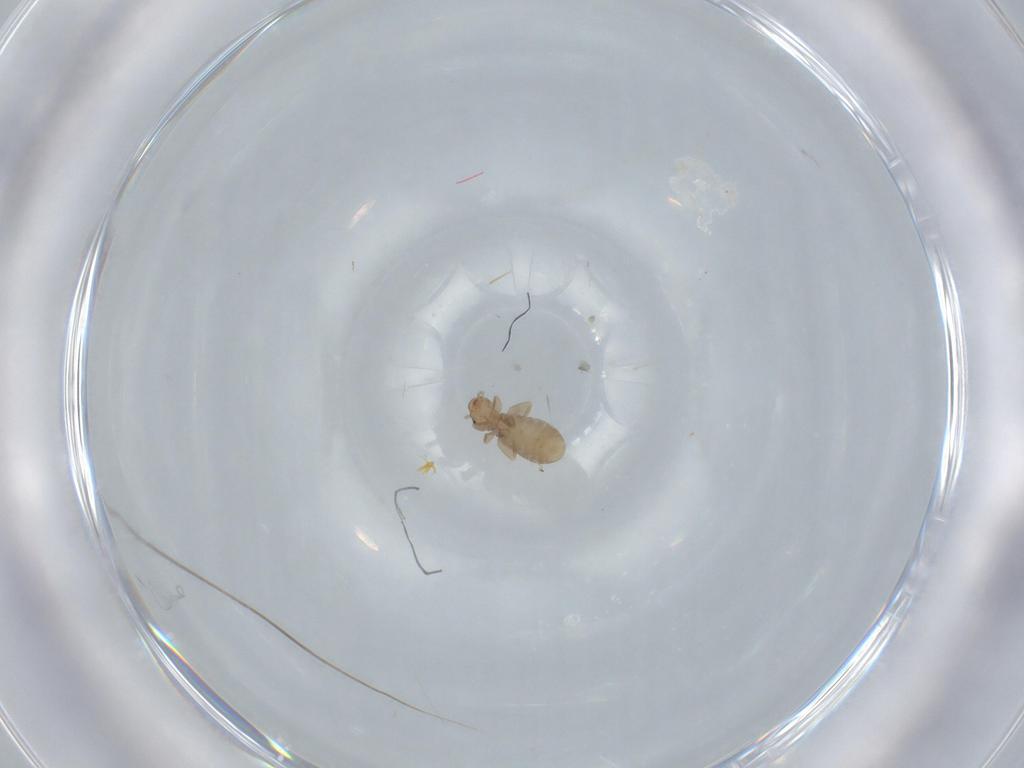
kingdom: Animalia
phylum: Arthropoda
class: Insecta
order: Psocodea
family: Liposcelididae
